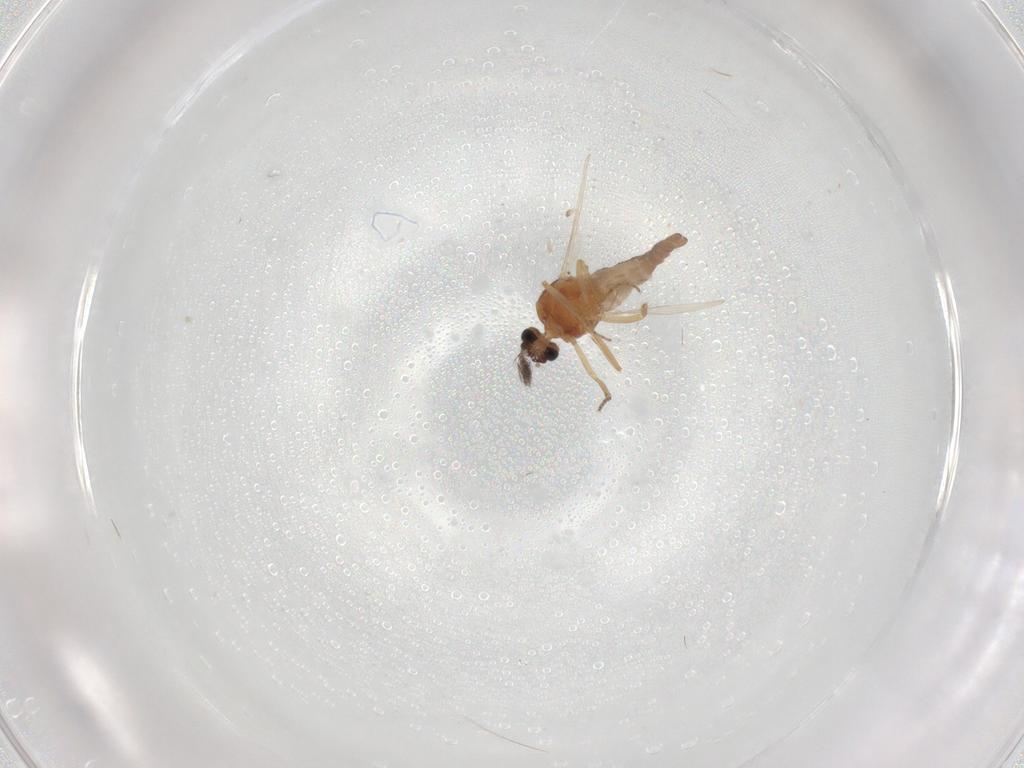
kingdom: Animalia
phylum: Arthropoda
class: Insecta
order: Diptera
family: Ceratopogonidae
